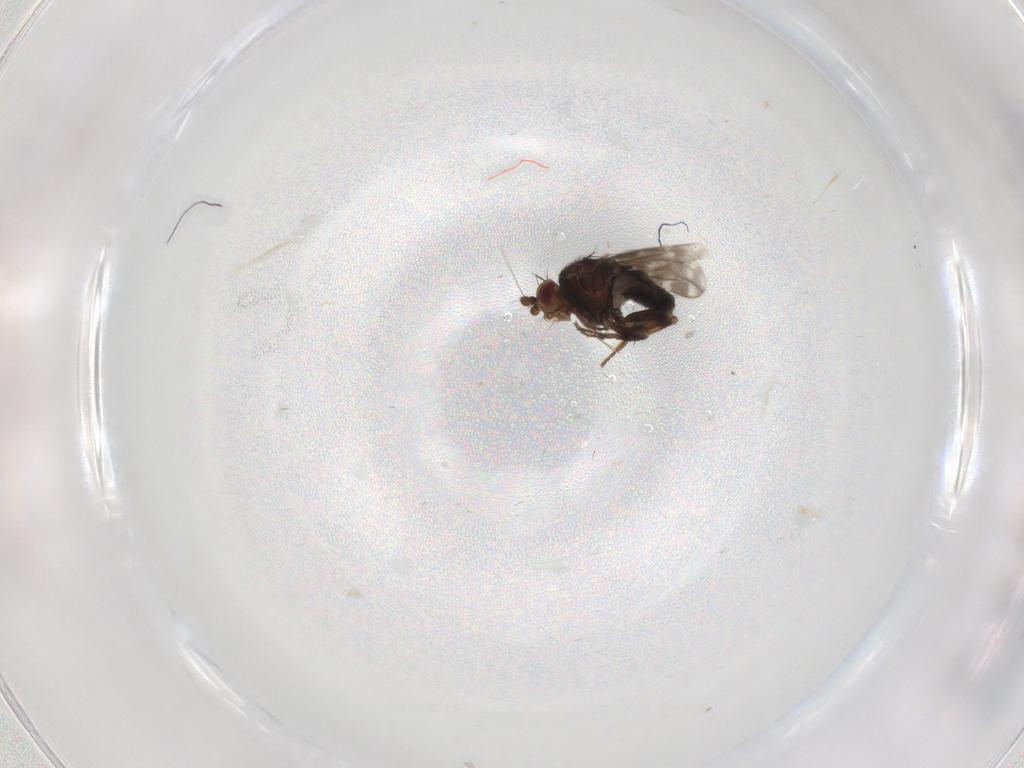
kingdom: Animalia
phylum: Arthropoda
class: Insecta
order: Diptera
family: Sphaeroceridae
